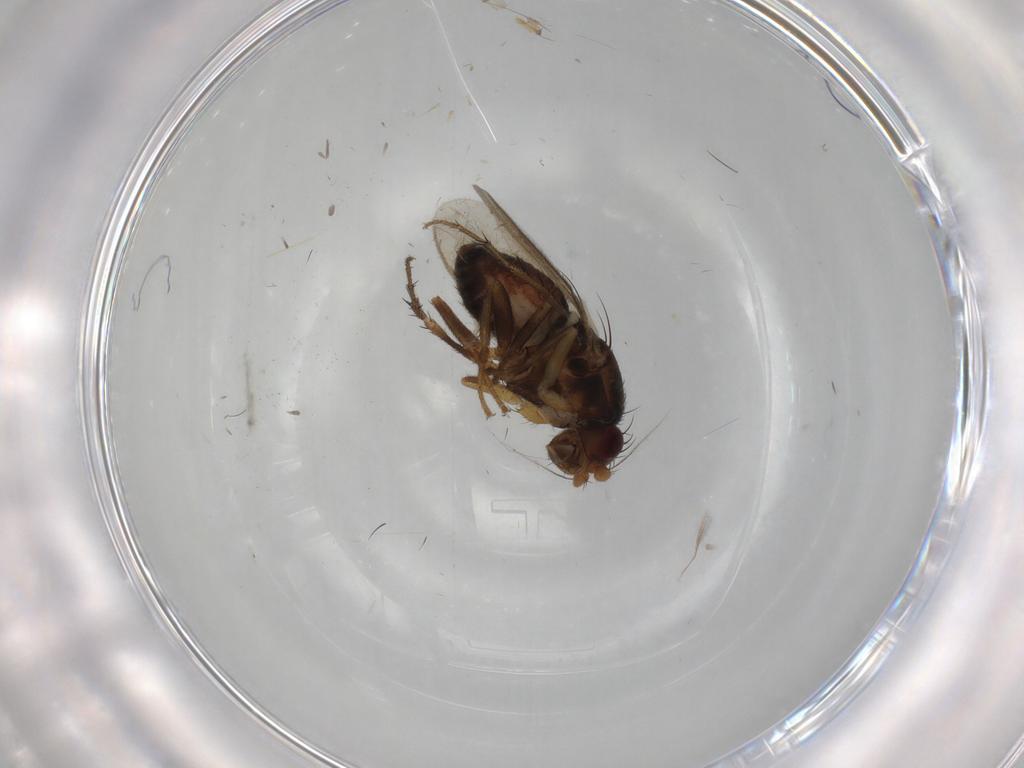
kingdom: Animalia
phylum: Arthropoda
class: Insecta
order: Diptera
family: Sphaeroceridae
